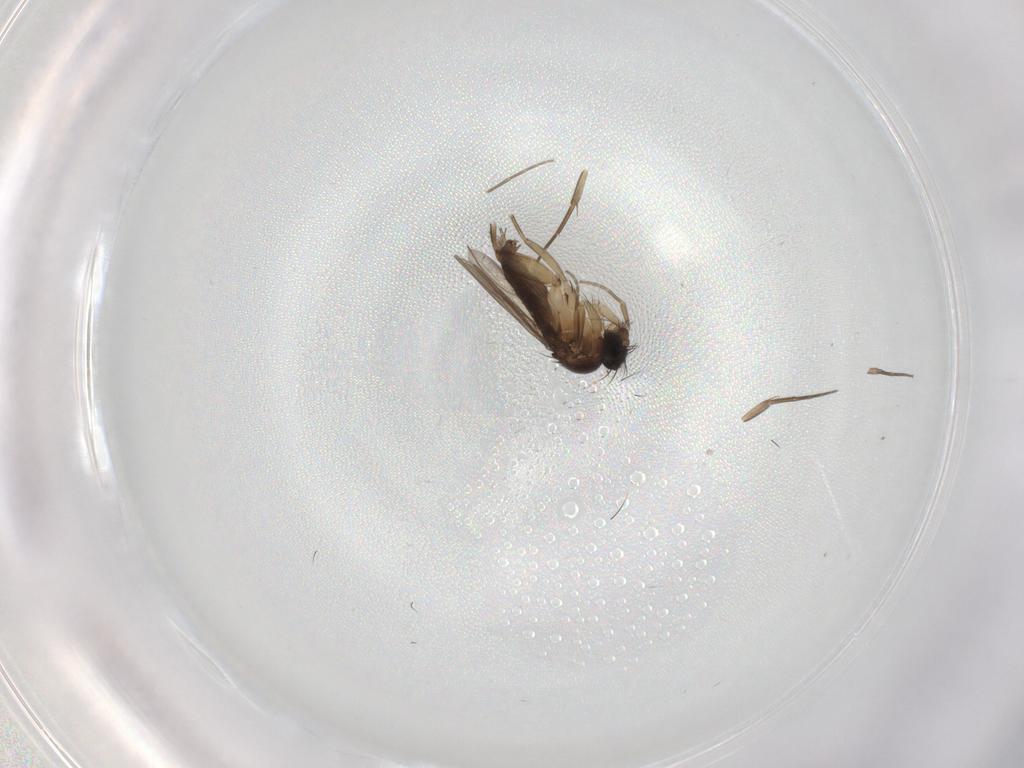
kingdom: Animalia
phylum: Arthropoda
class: Insecta
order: Diptera
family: Phoridae
